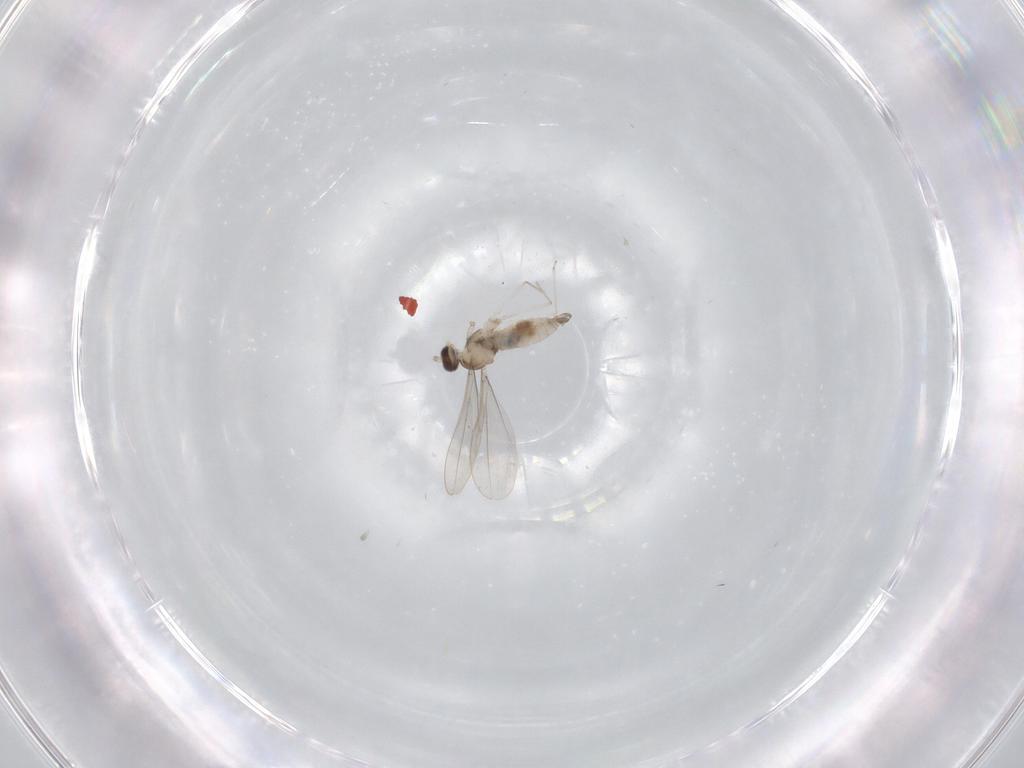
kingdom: Animalia
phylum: Arthropoda
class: Insecta
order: Diptera
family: Cecidomyiidae
